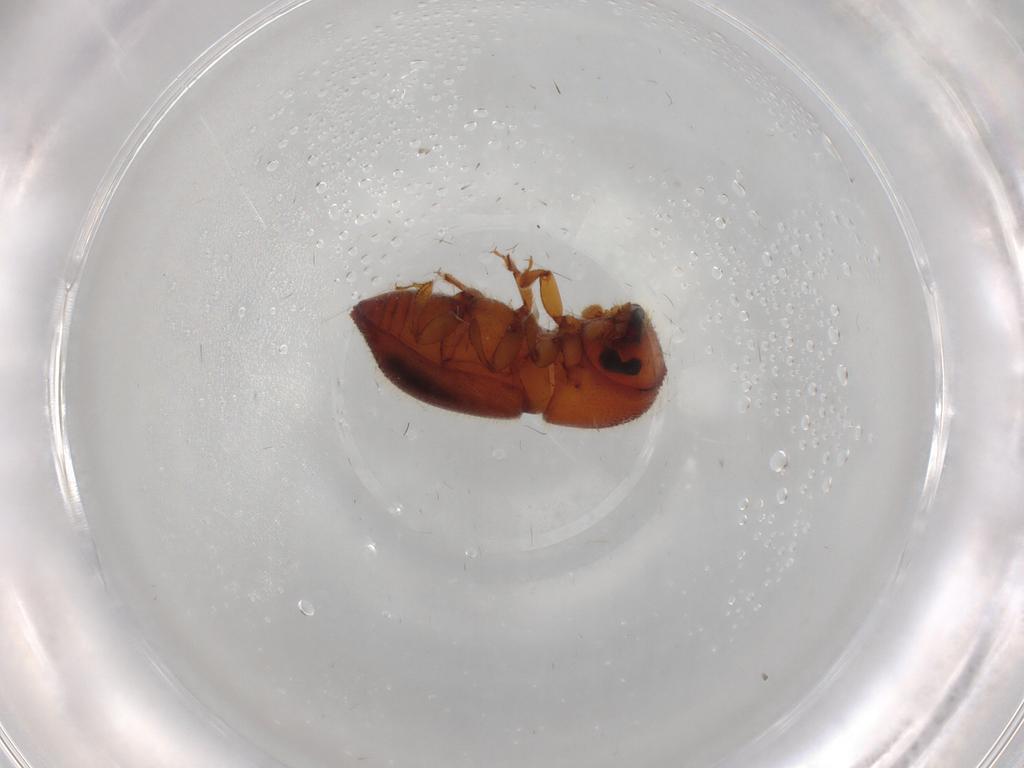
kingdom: Animalia
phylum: Arthropoda
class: Insecta
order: Coleoptera
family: Curculionidae
